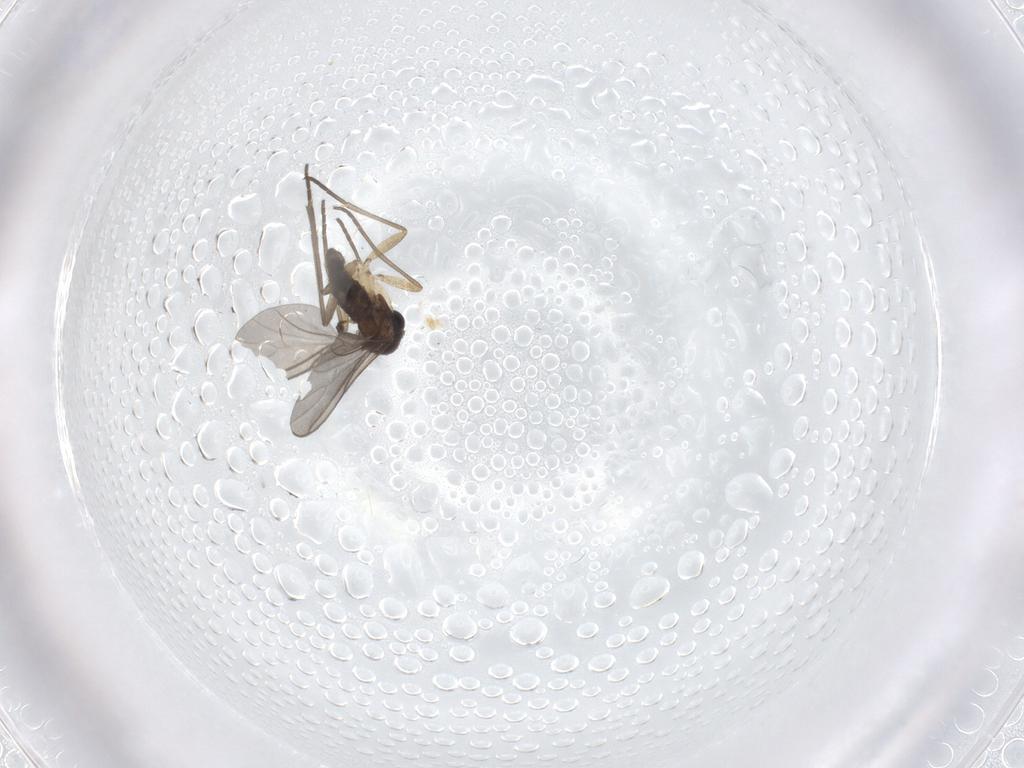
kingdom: Animalia
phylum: Arthropoda
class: Insecta
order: Diptera
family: Sciaridae
